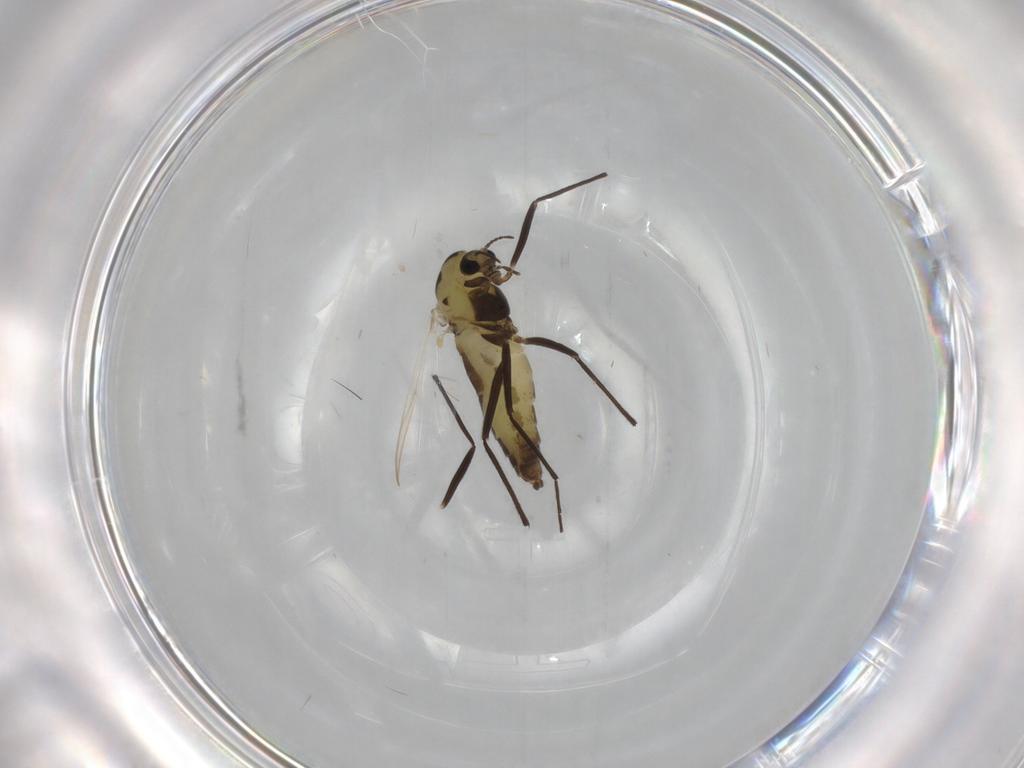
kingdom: Animalia
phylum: Arthropoda
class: Insecta
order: Diptera
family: Chironomidae
